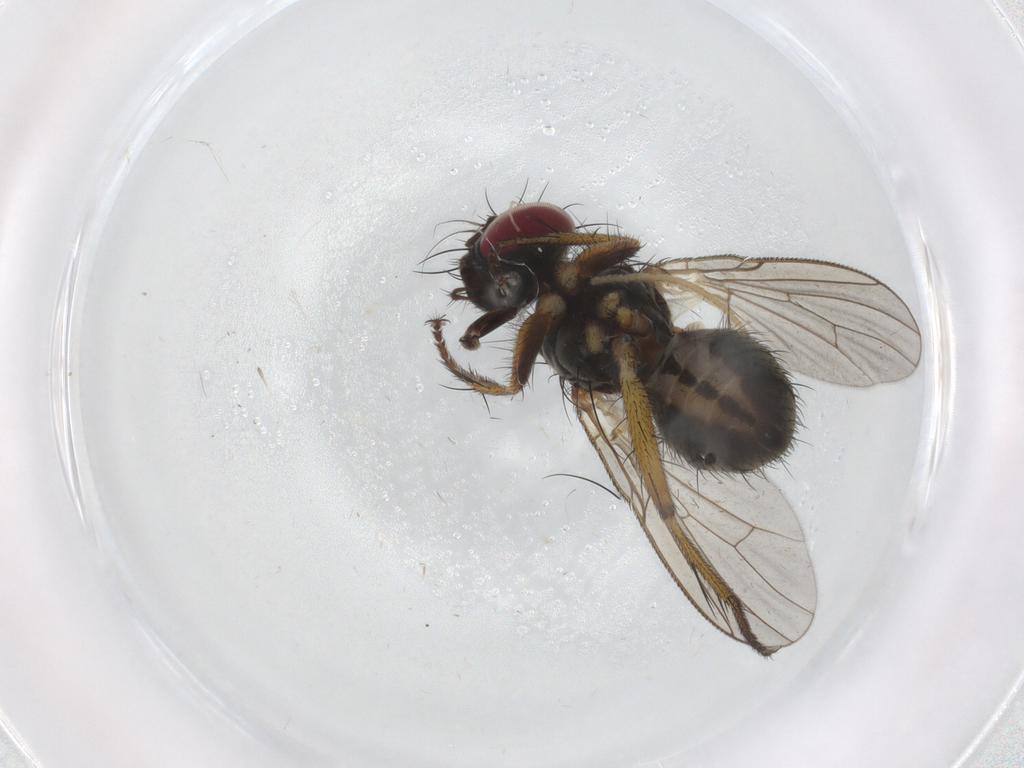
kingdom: Animalia
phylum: Arthropoda
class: Insecta
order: Diptera
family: Muscidae
